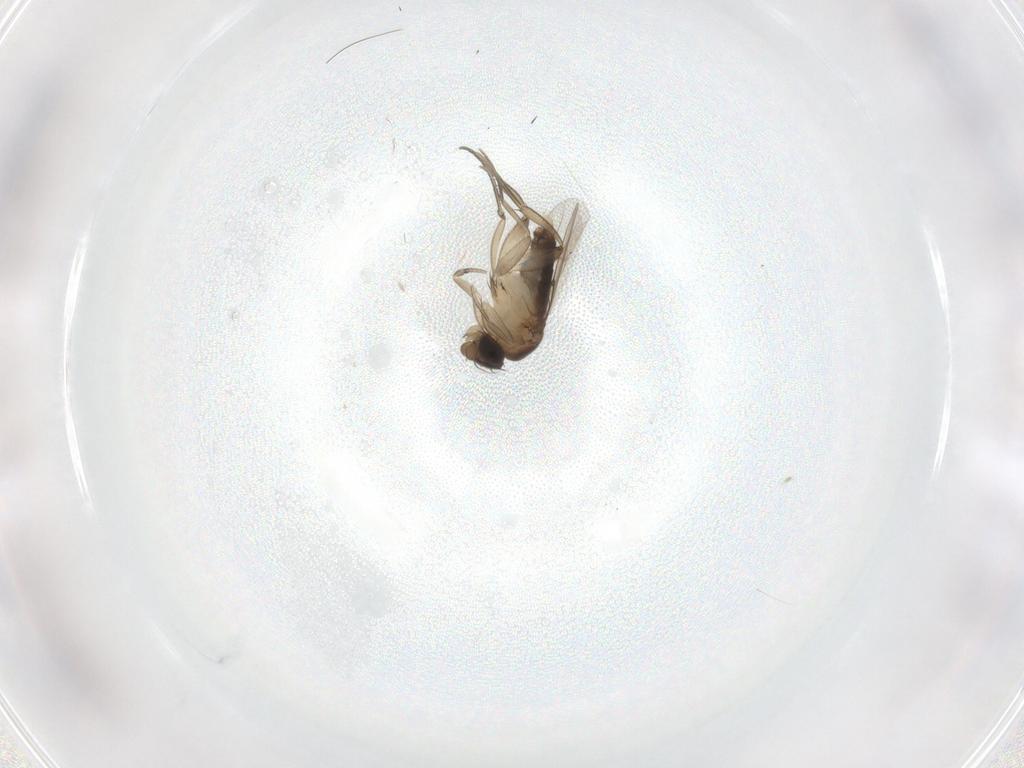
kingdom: Animalia
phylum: Arthropoda
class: Insecta
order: Diptera
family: Phoridae
